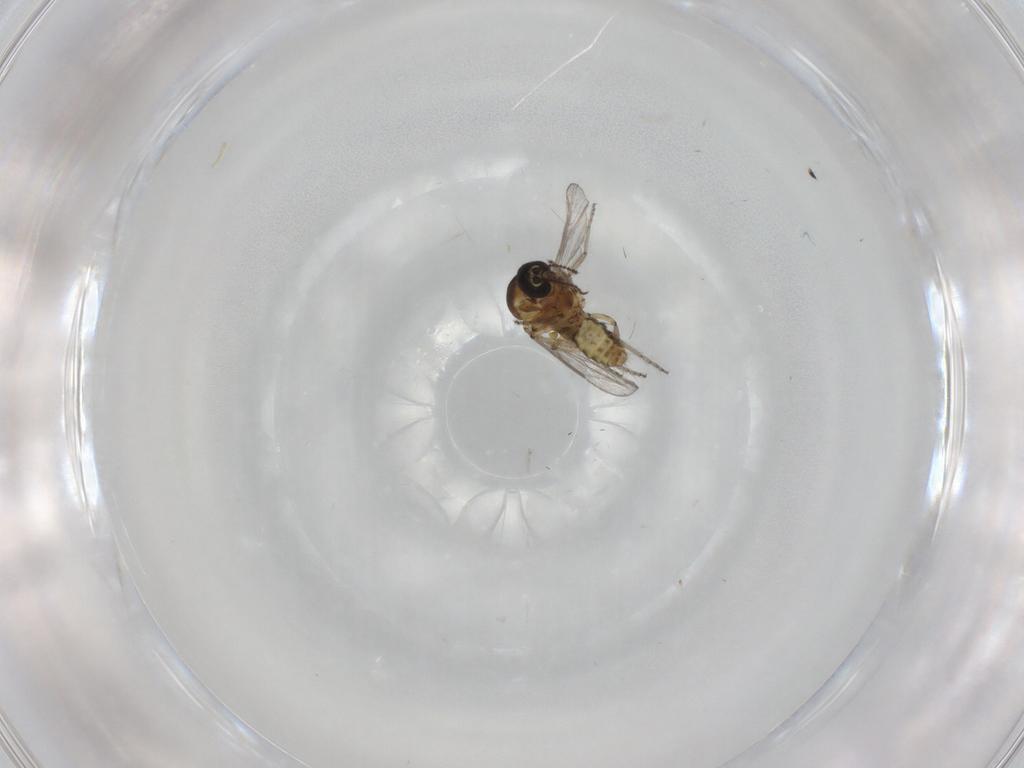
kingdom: Animalia
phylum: Arthropoda
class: Insecta
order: Diptera
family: Ceratopogonidae
